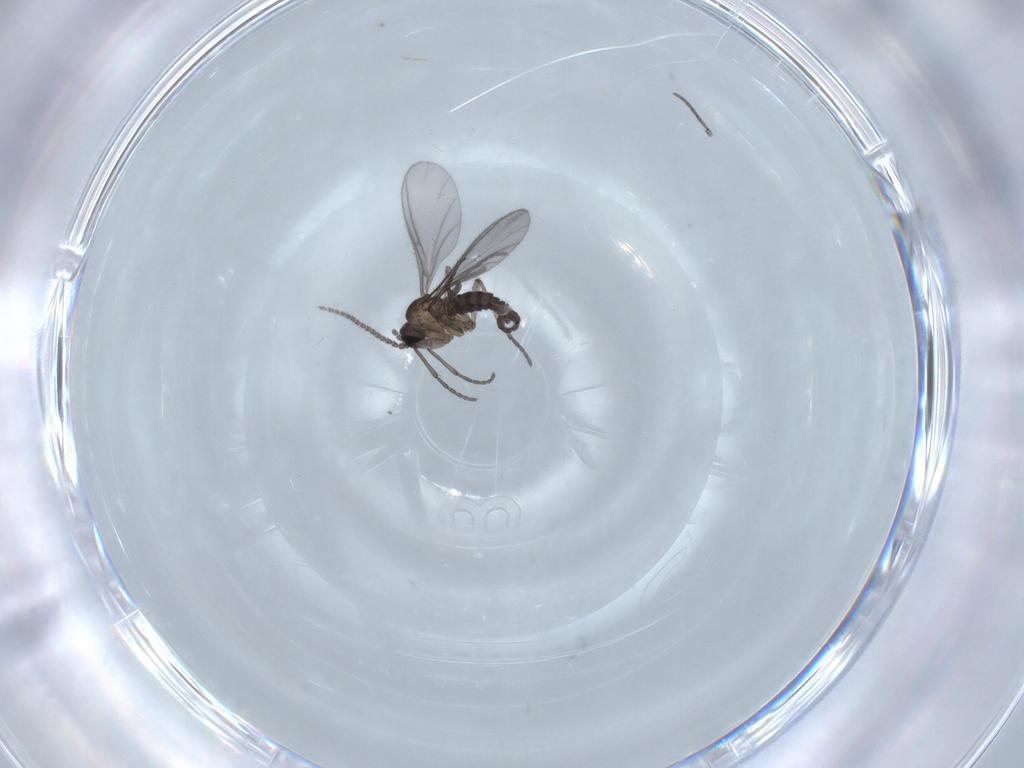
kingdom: Animalia
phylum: Arthropoda
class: Insecta
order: Diptera
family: Sciaridae
